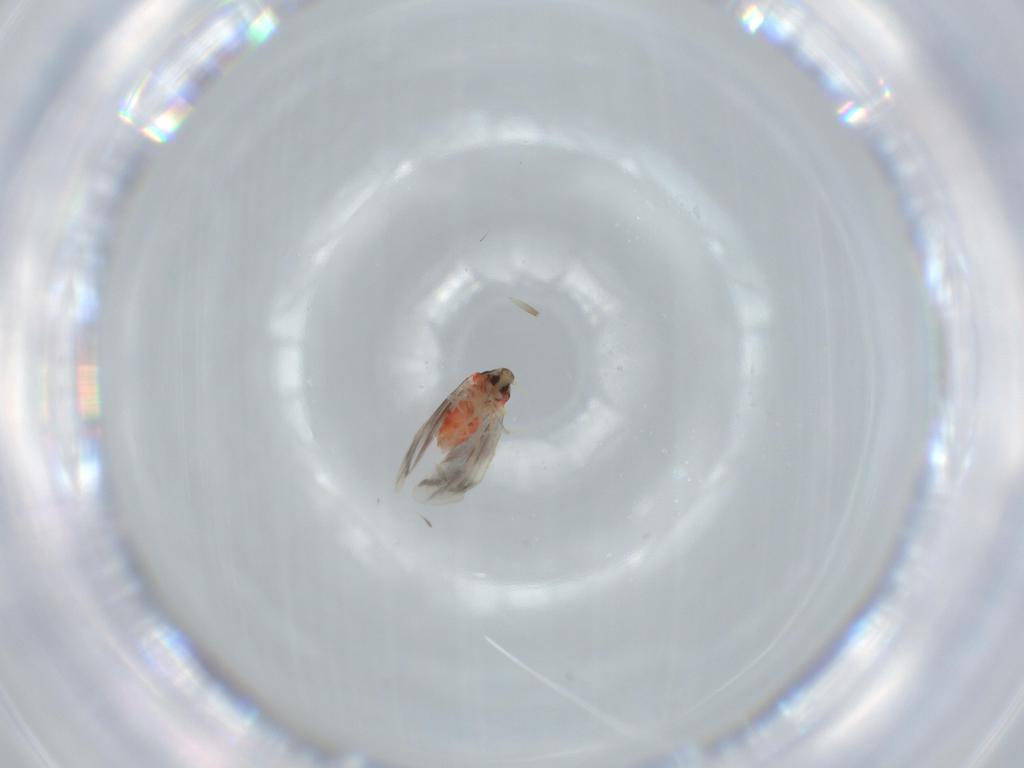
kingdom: Animalia
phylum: Arthropoda
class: Insecta
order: Hemiptera
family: Aleyrodidae
